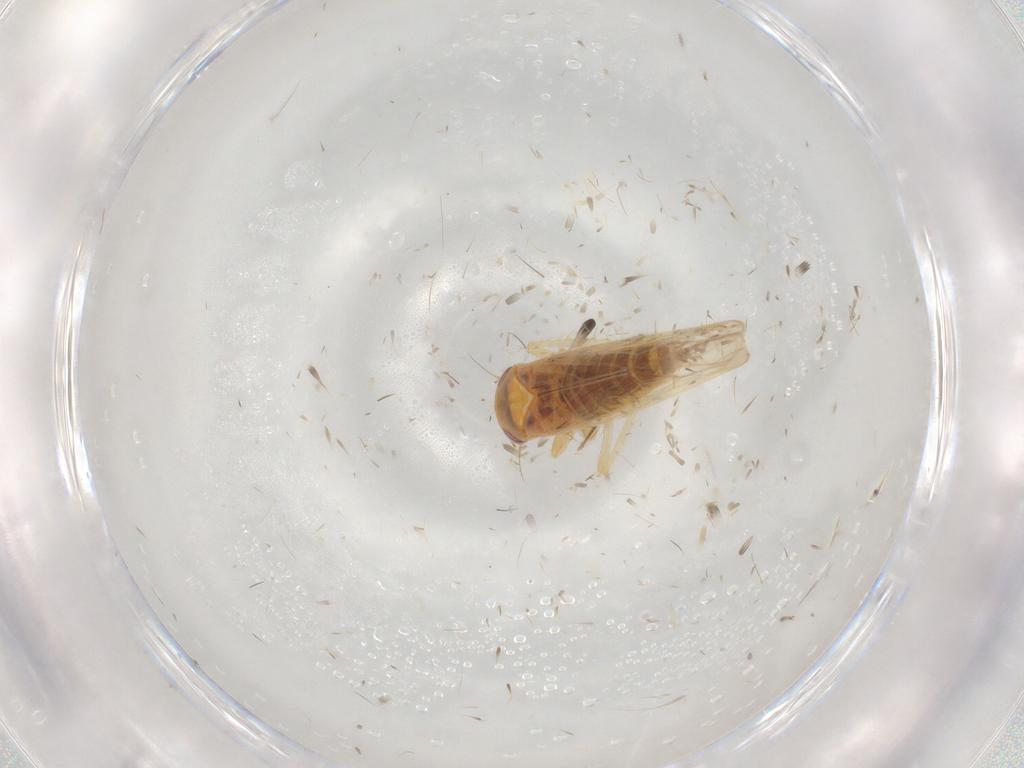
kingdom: Animalia
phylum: Arthropoda
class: Insecta
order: Hemiptera
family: Cicadellidae
